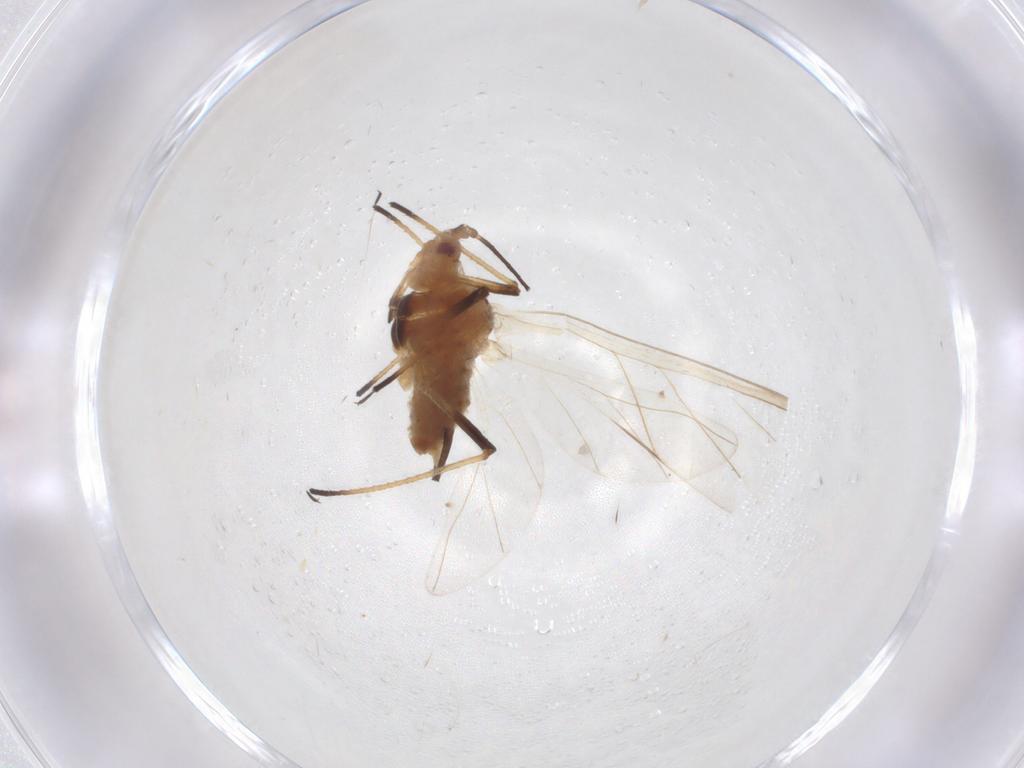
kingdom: Animalia
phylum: Arthropoda
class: Insecta
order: Hemiptera
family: Aphididae
